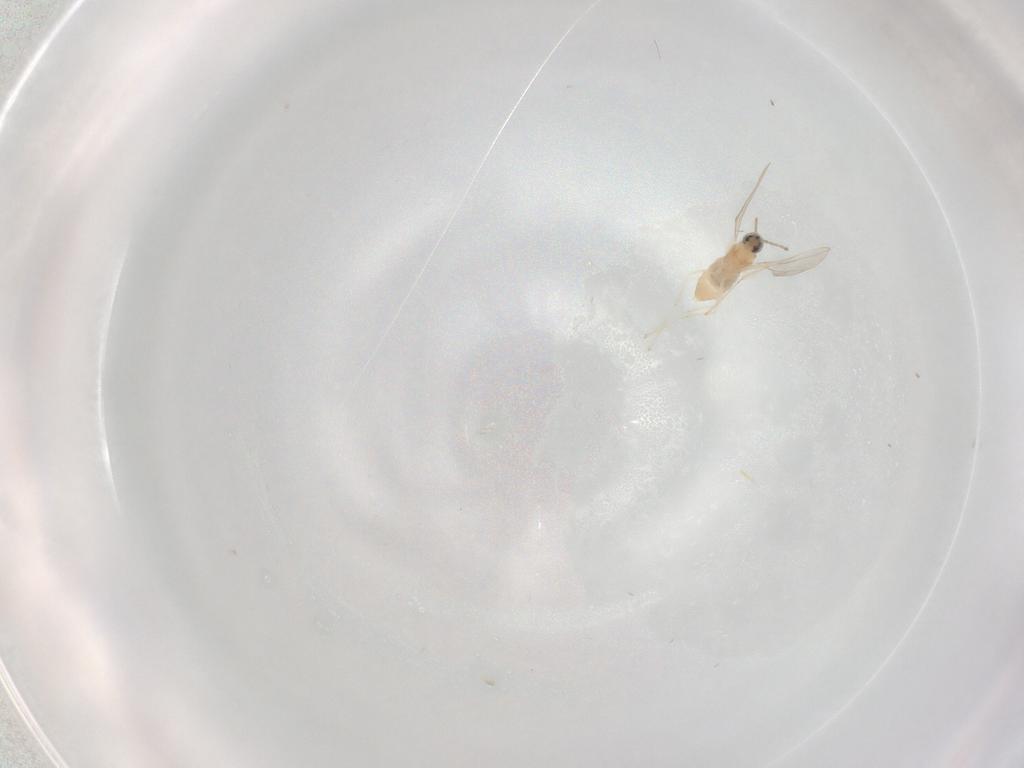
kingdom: Animalia
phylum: Arthropoda
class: Insecta
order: Diptera
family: Cecidomyiidae
